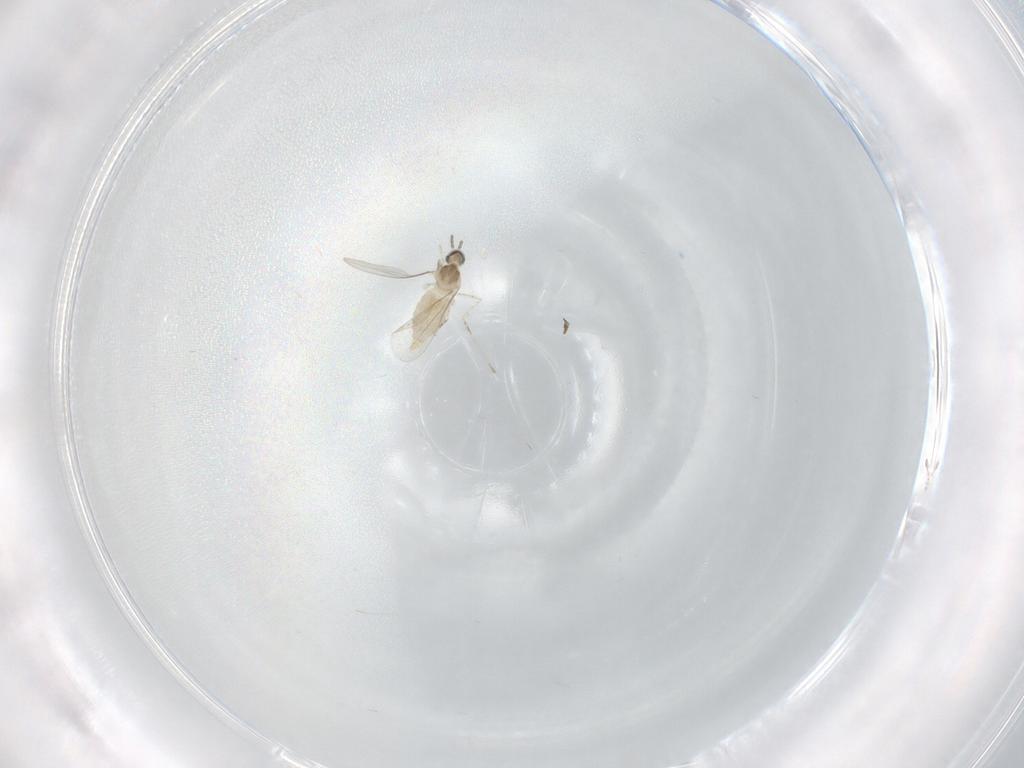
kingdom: Animalia
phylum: Arthropoda
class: Insecta
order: Diptera
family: Cecidomyiidae
